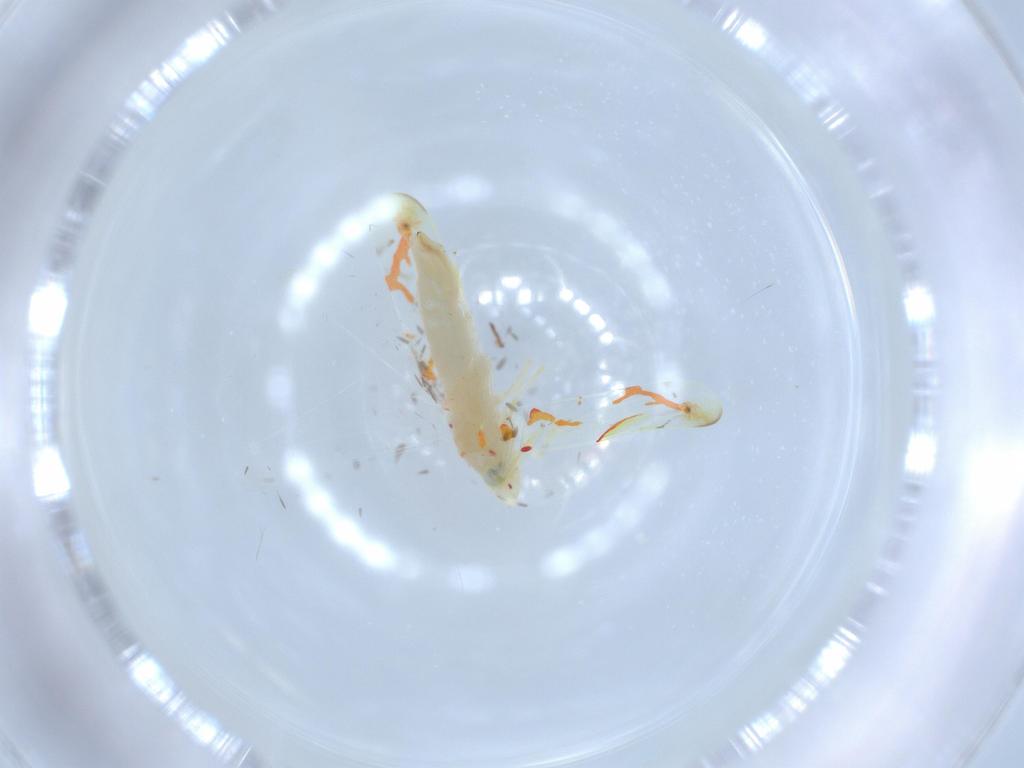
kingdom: Animalia
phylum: Arthropoda
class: Insecta
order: Hemiptera
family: Cicadellidae
